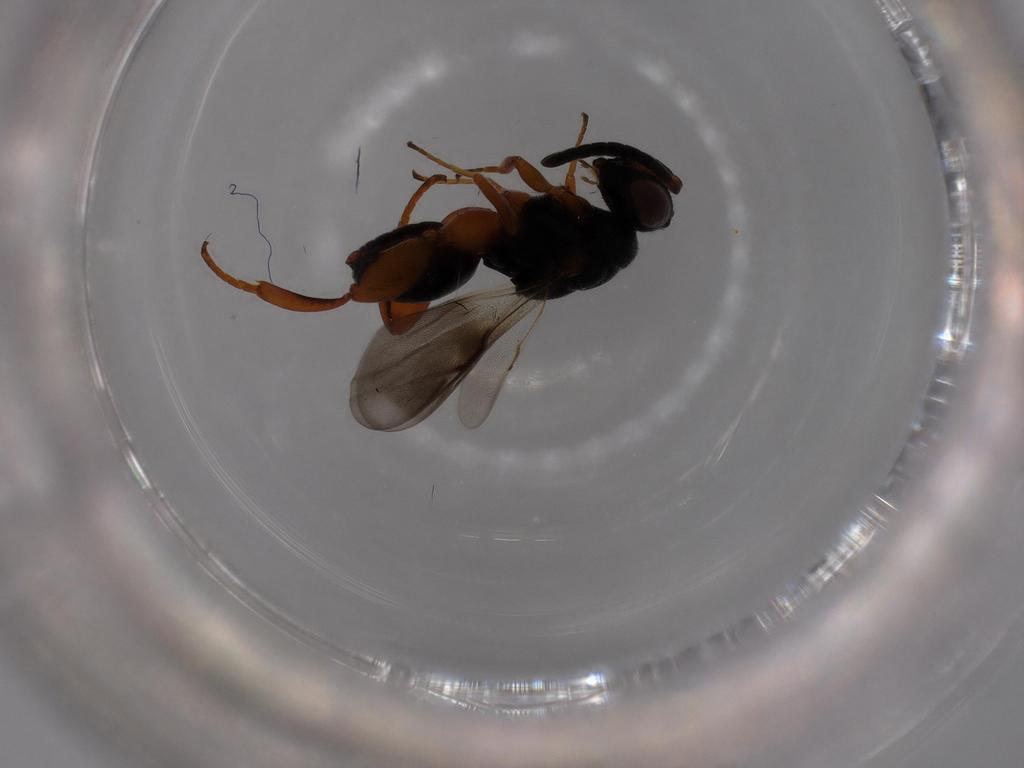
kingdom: Animalia
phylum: Arthropoda
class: Insecta
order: Hymenoptera
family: Chalcididae
